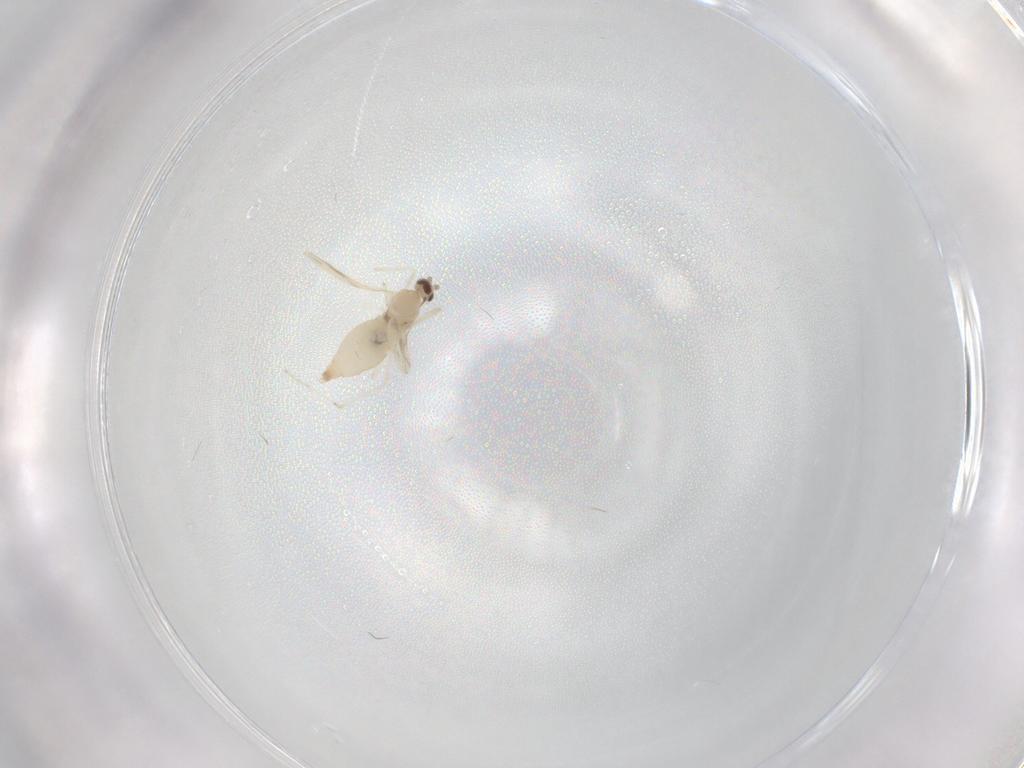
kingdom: Animalia
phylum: Arthropoda
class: Insecta
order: Diptera
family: Cecidomyiidae
